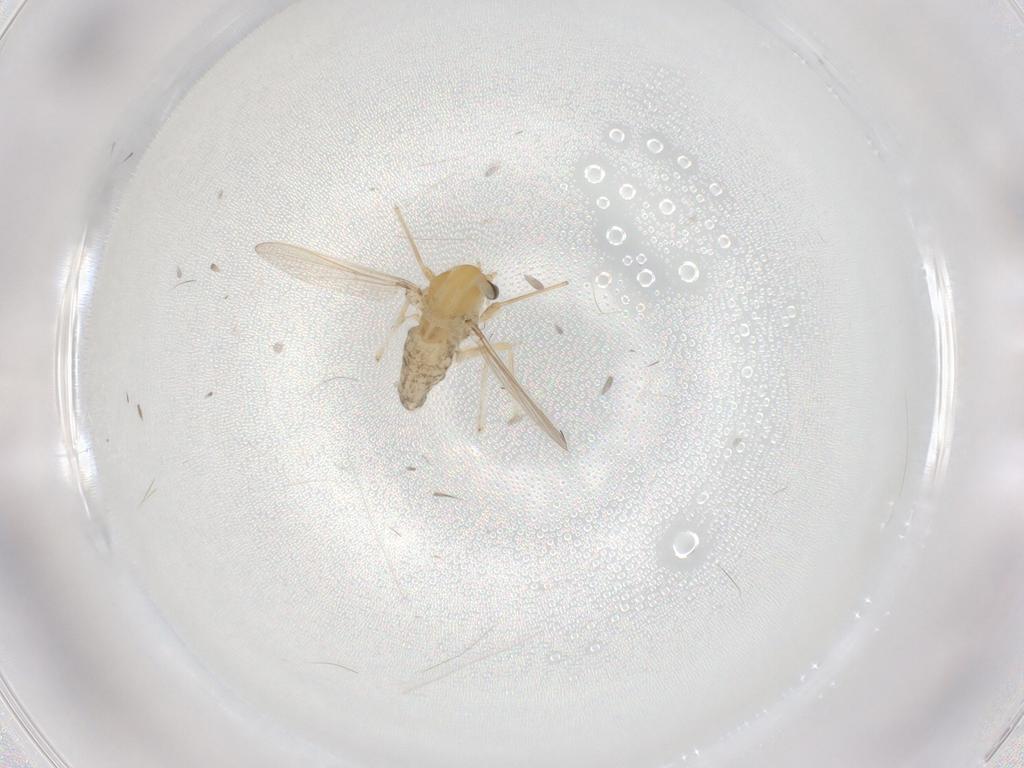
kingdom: Animalia
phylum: Arthropoda
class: Insecta
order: Diptera
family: Chironomidae
